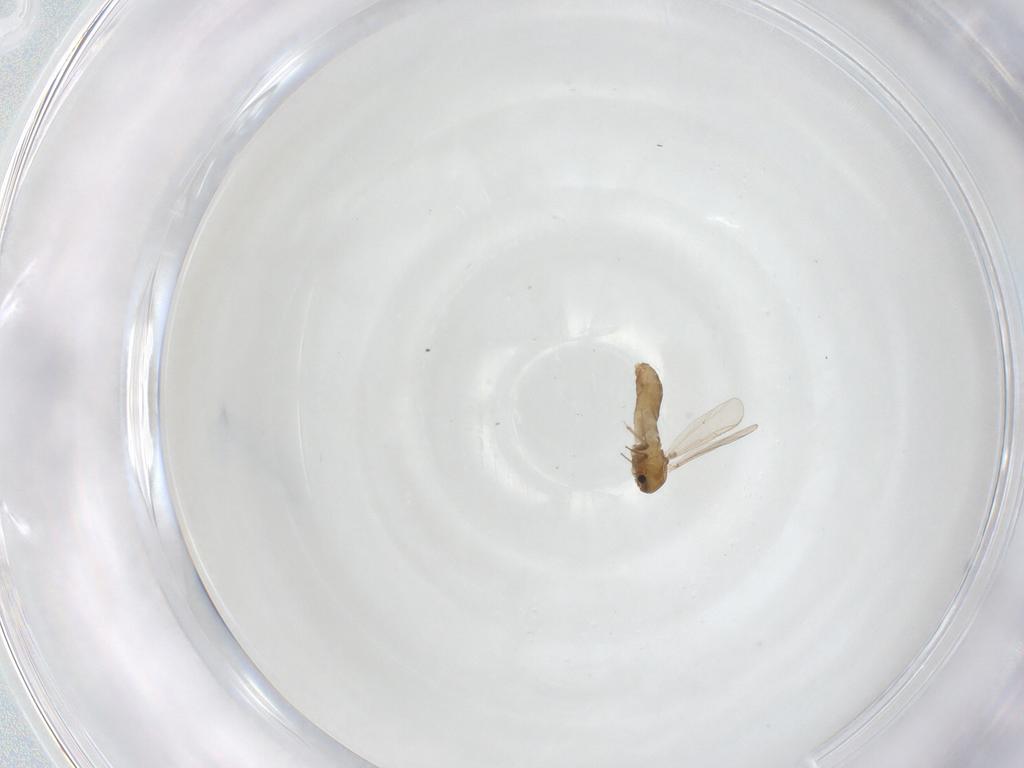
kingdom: Animalia
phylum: Arthropoda
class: Insecta
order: Diptera
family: Chironomidae
